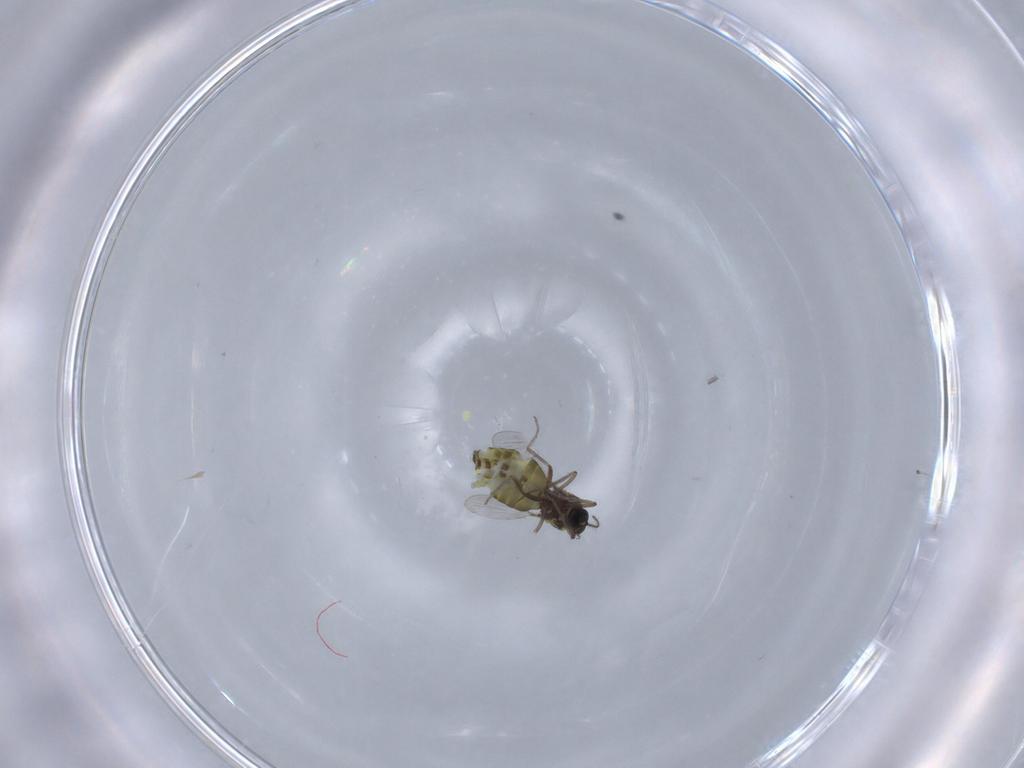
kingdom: Animalia
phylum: Arthropoda
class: Insecta
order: Diptera
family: Ceratopogonidae
